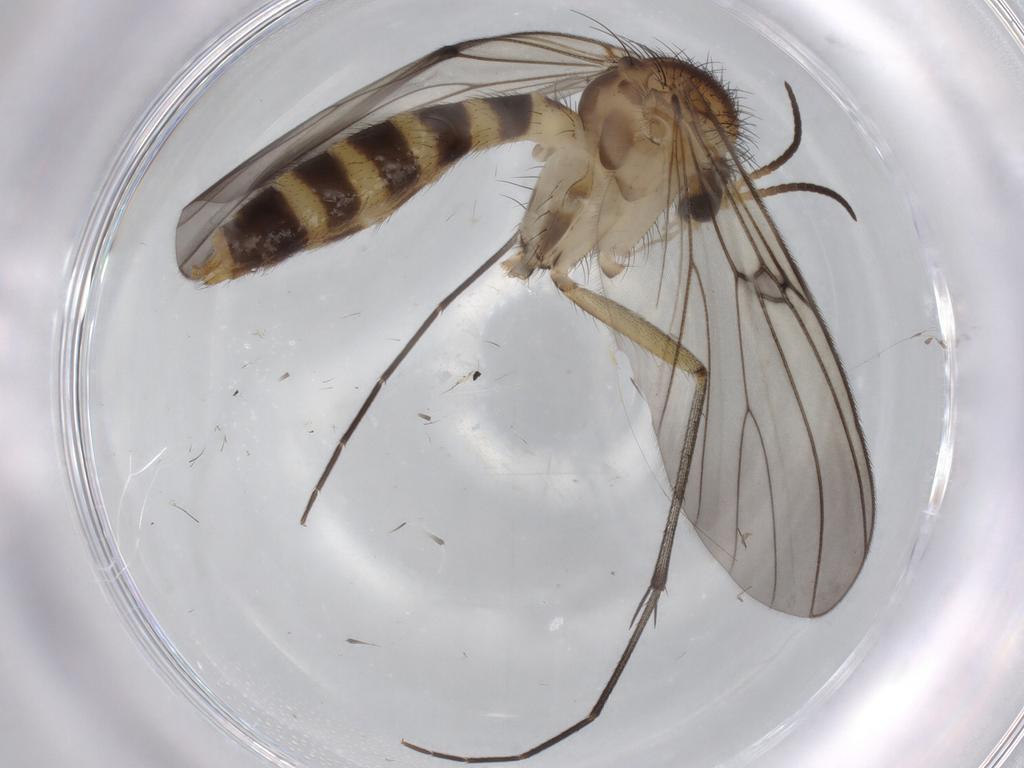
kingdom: Animalia
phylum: Arthropoda
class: Insecta
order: Diptera
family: Mycetophilidae
